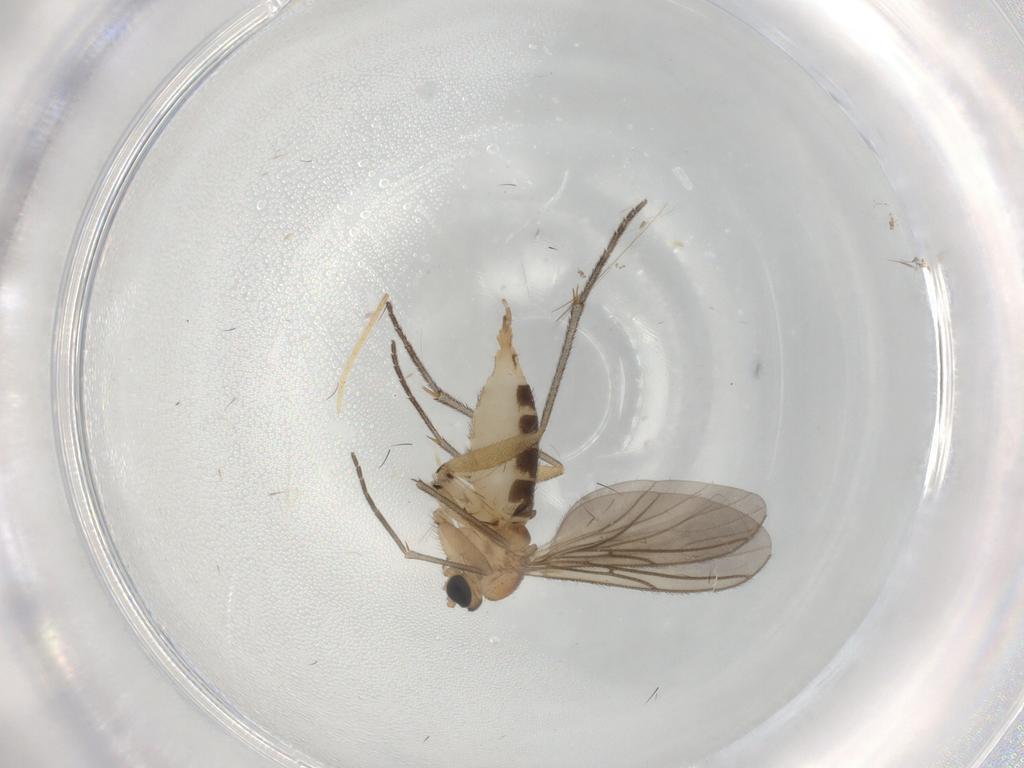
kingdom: Animalia
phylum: Arthropoda
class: Insecta
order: Diptera
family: Sciaridae
